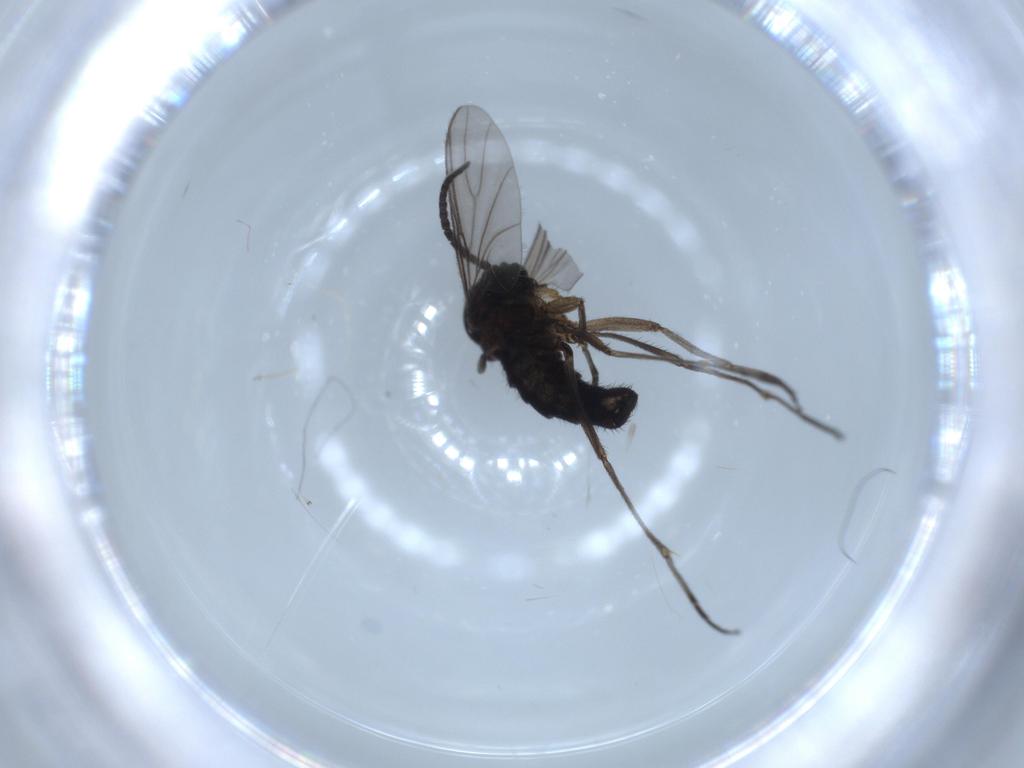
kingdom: Animalia
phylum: Arthropoda
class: Insecta
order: Diptera
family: Sciaridae
